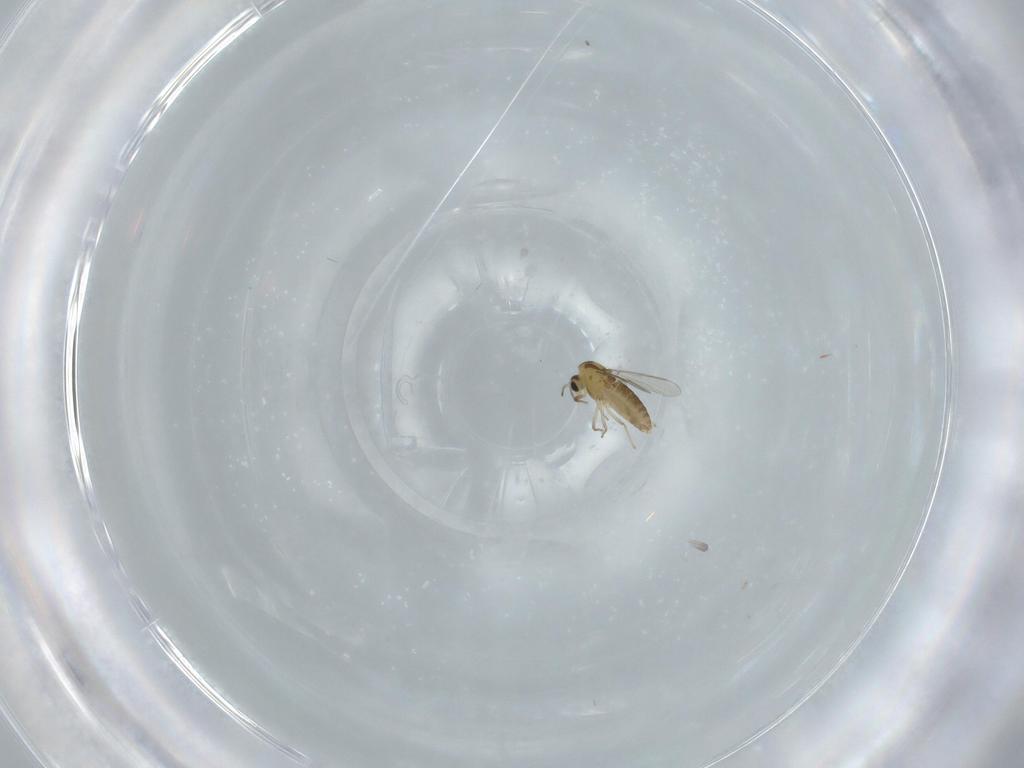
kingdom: Animalia
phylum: Arthropoda
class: Insecta
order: Diptera
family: Chironomidae
